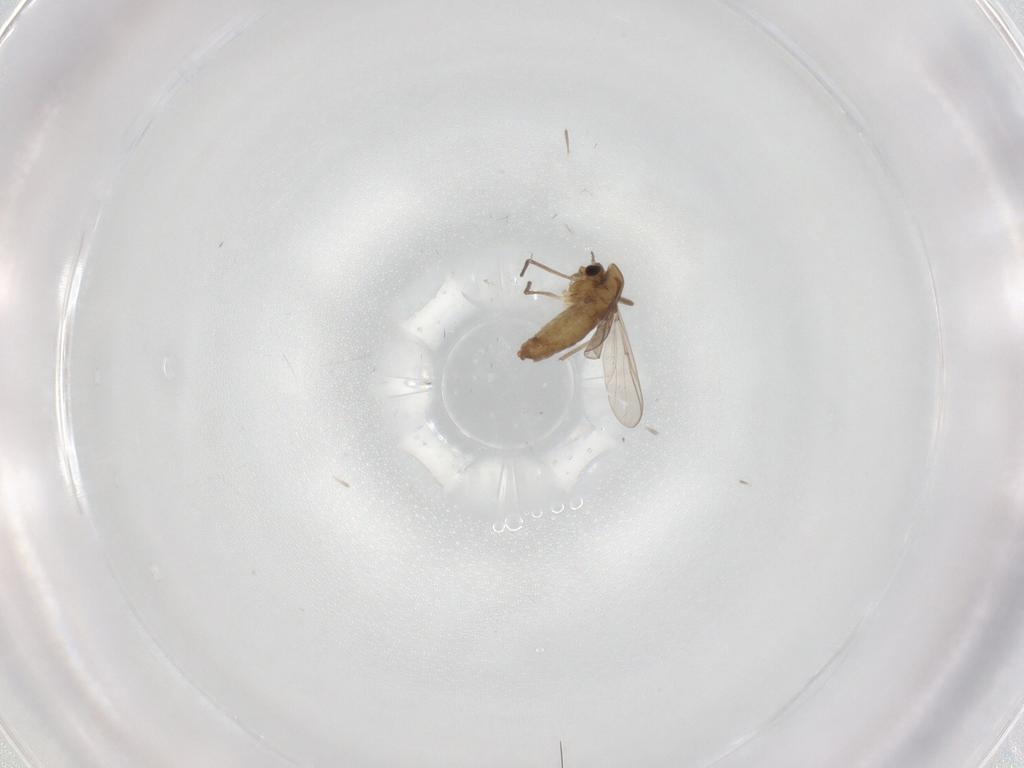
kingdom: Animalia
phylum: Arthropoda
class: Insecta
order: Diptera
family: Chironomidae
